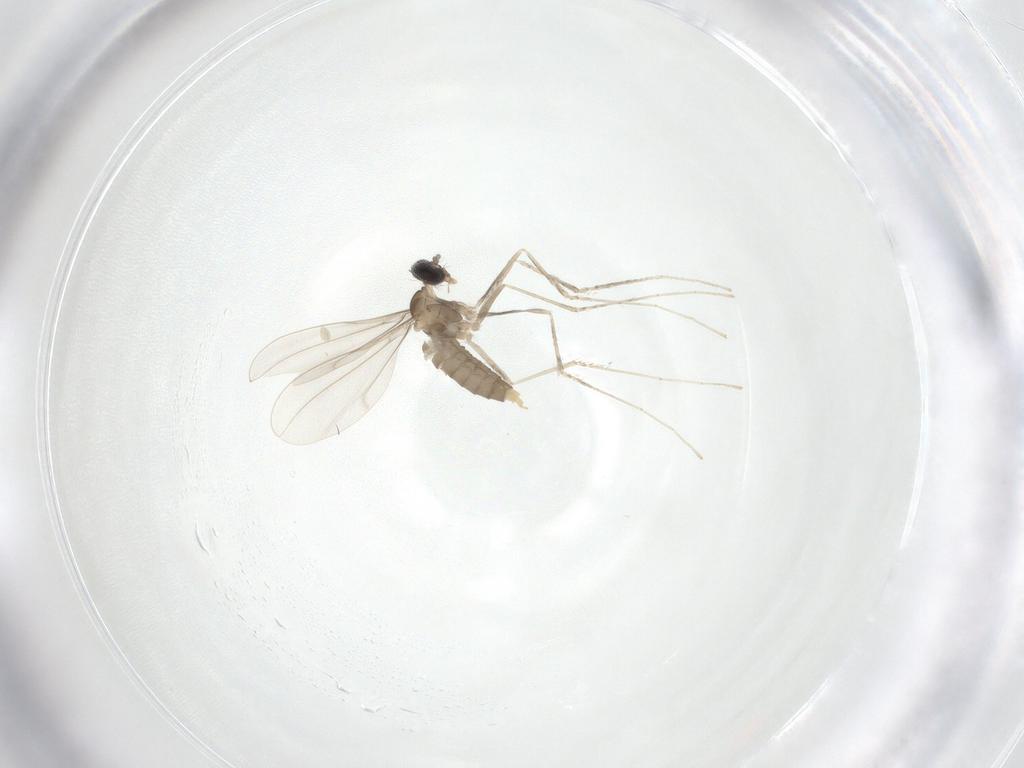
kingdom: Animalia
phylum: Arthropoda
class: Insecta
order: Diptera
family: Cecidomyiidae
